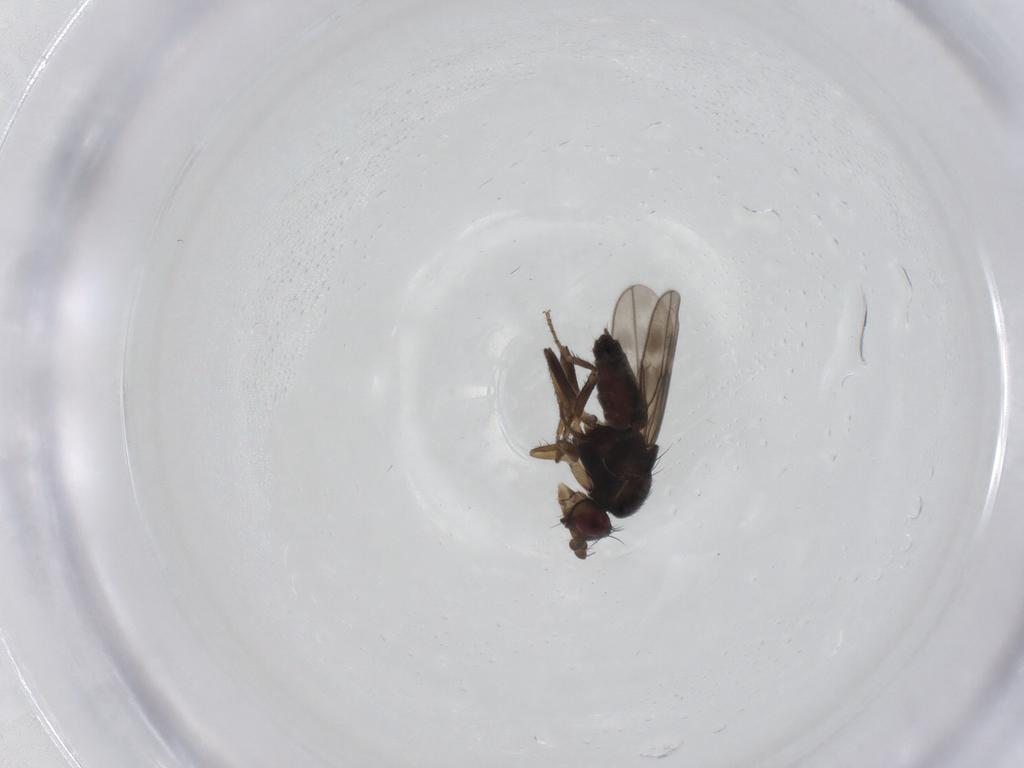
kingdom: Animalia
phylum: Arthropoda
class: Insecta
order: Diptera
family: Sphaeroceridae
